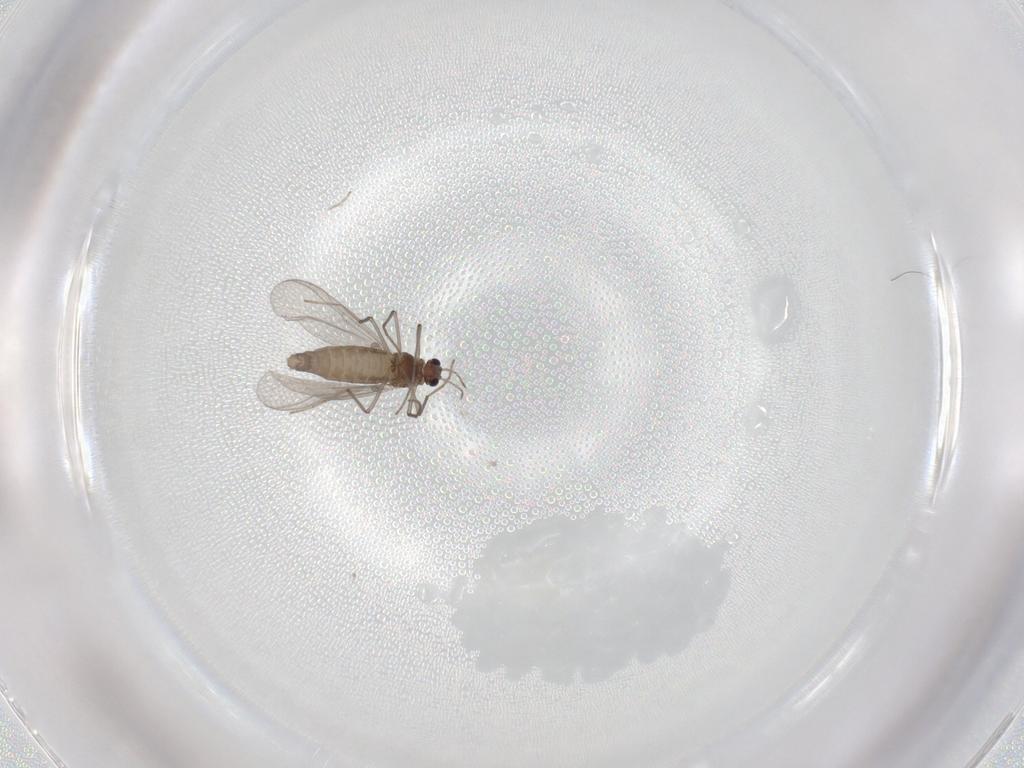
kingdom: Animalia
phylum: Arthropoda
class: Insecta
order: Diptera
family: Chironomidae
